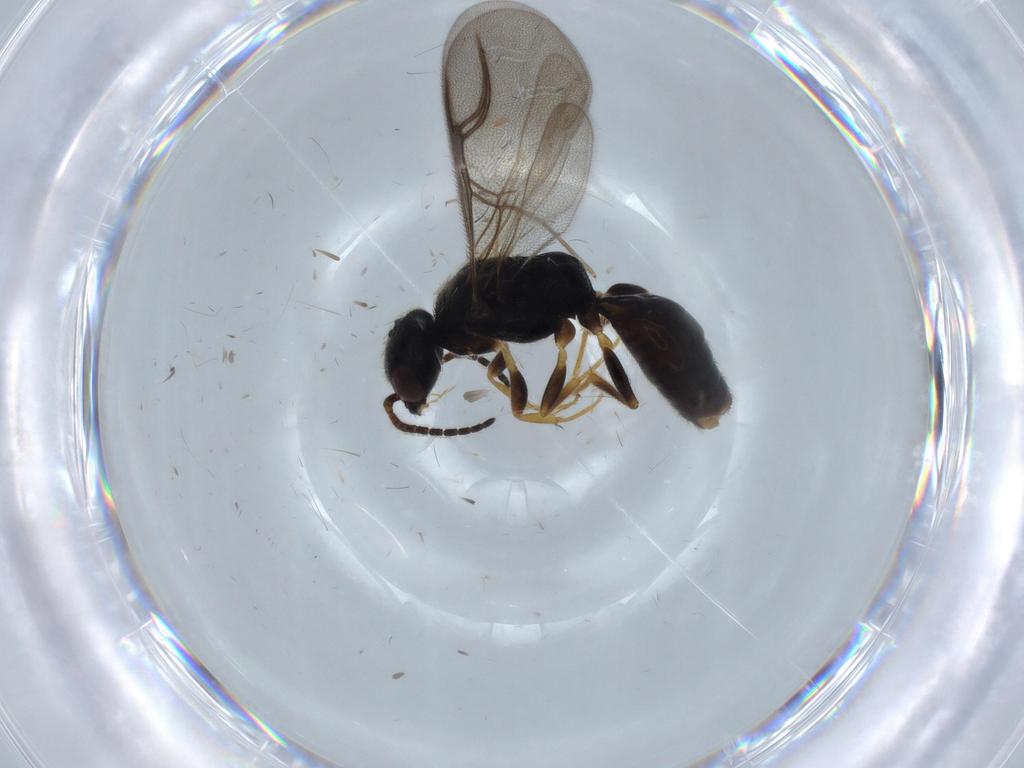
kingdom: Animalia
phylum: Arthropoda
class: Insecta
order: Hymenoptera
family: Bethylidae
